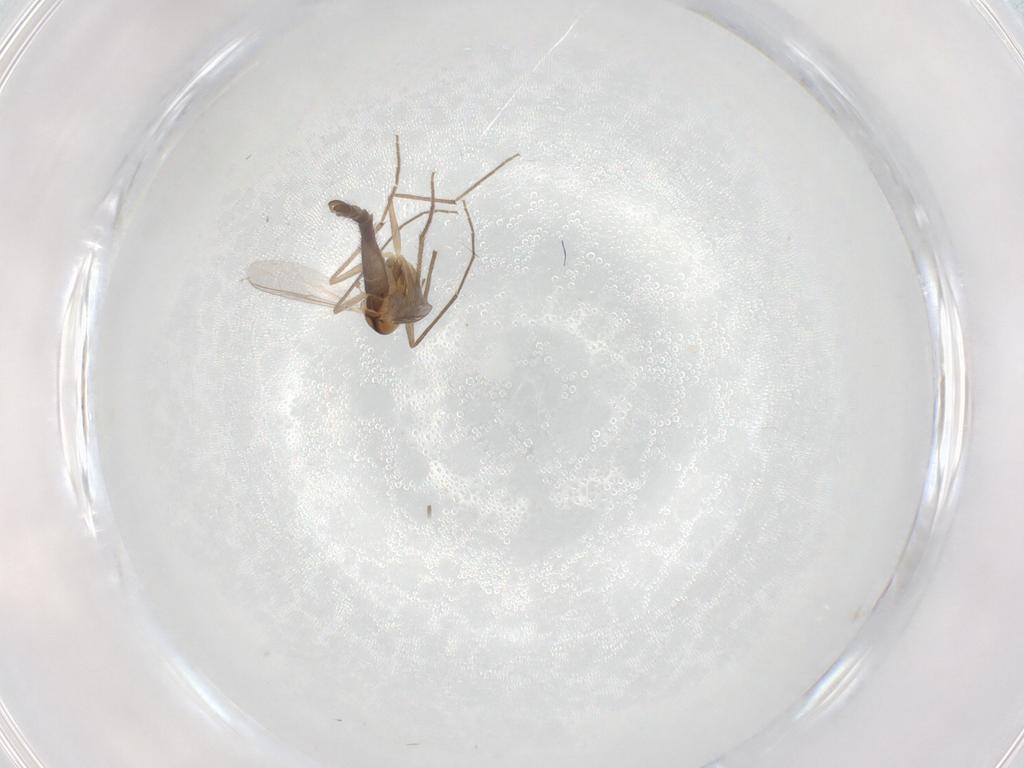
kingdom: Animalia
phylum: Arthropoda
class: Insecta
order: Diptera
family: Chironomidae
